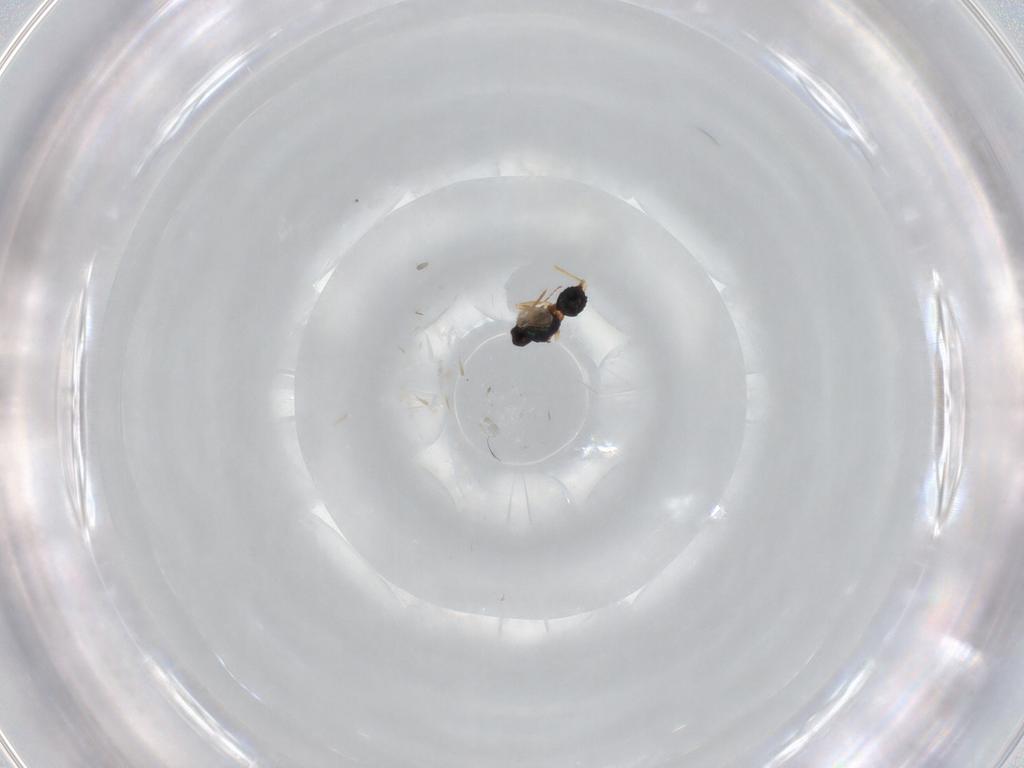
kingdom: Animalia
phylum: Arthropoda
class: Insecta
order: Hymenoptera
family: Tetracampidae
